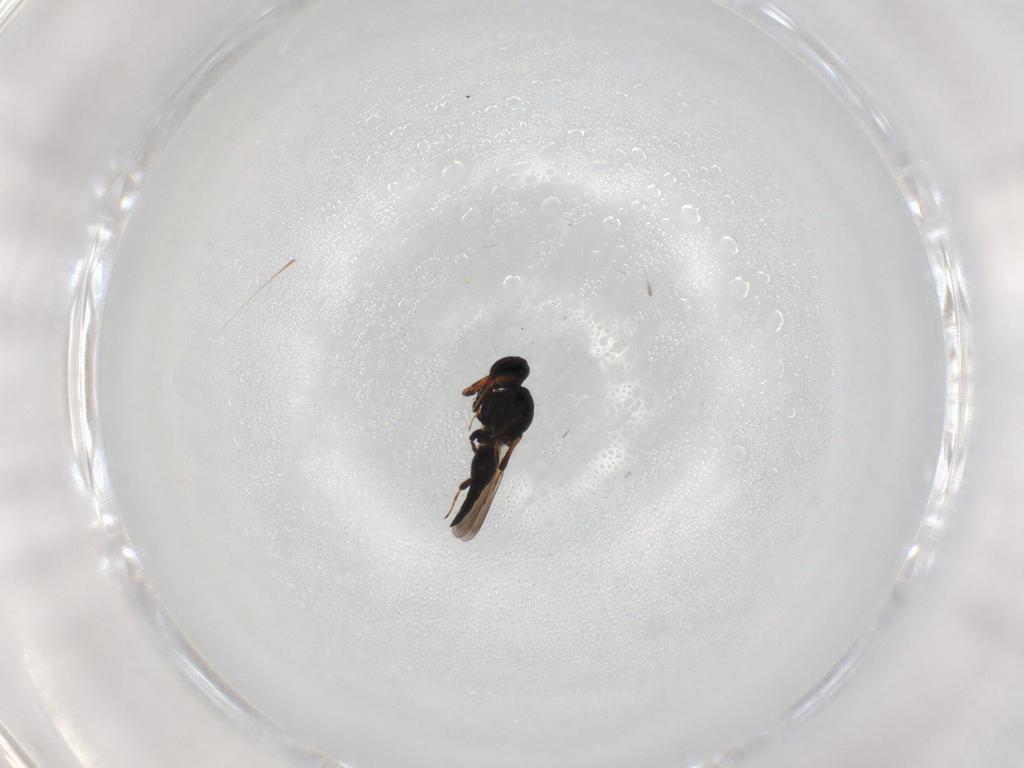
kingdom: Animalia
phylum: Arthropoda
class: Insecta
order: Hymenoptera
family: Platygastridae
